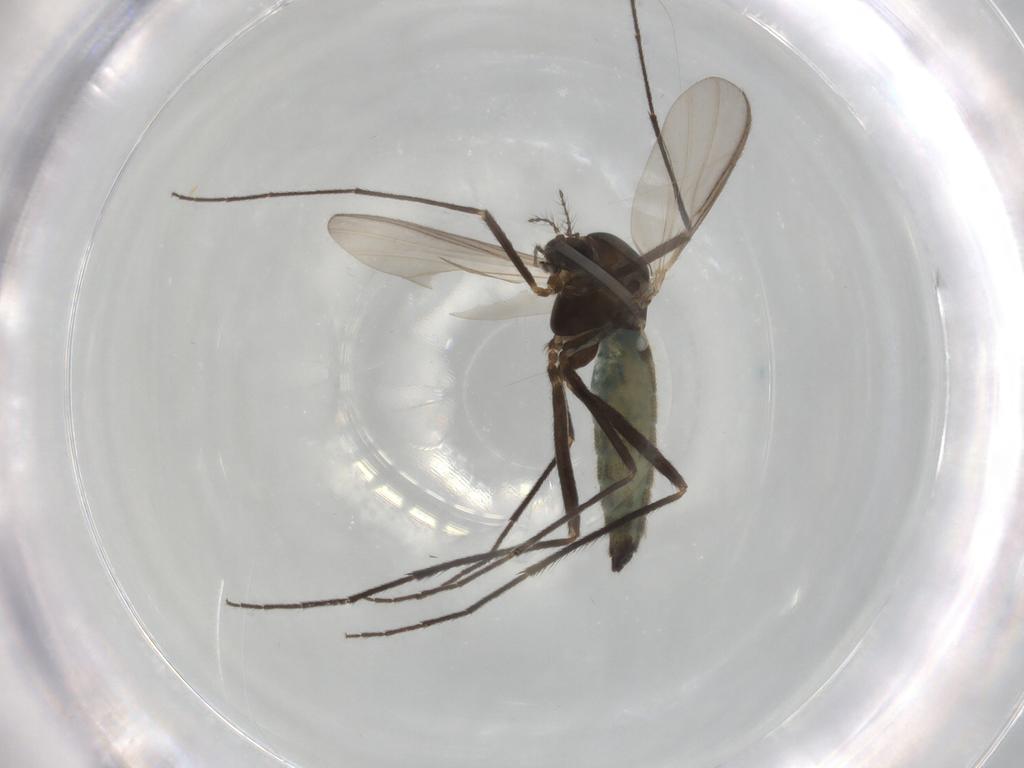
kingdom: Animalia
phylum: Arthropoda
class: Insecta
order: Diptera
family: Chironomidae
